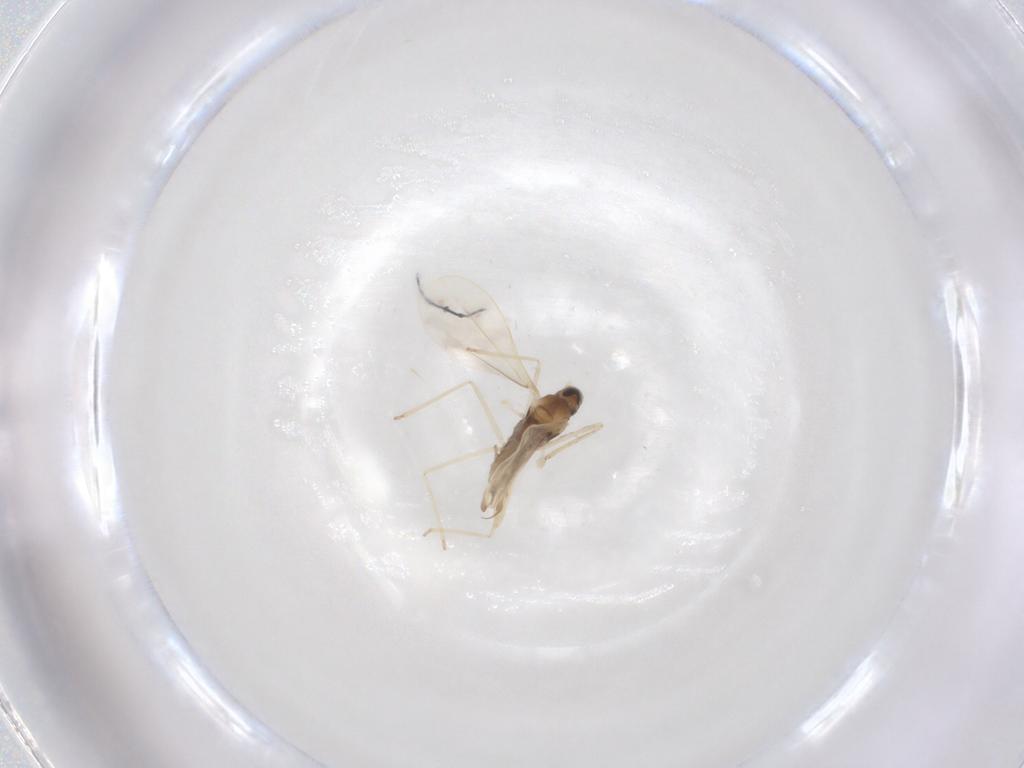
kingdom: Animalia
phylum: Arthropoda
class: Insecta
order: Diptera
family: Cecidomyiidae
